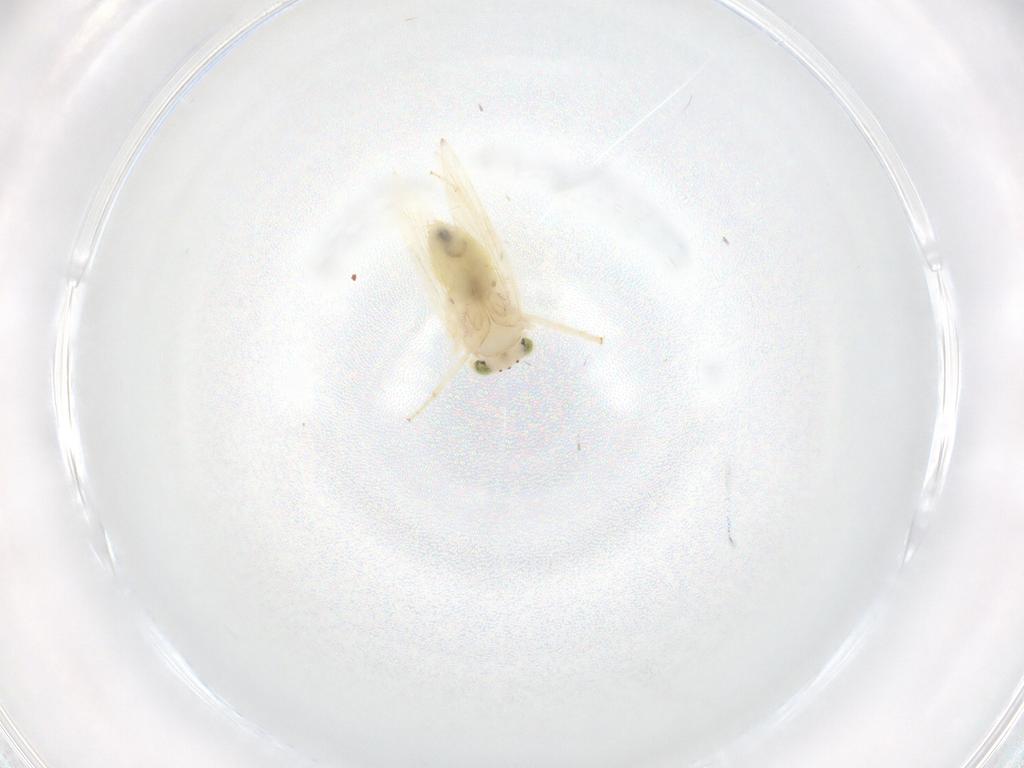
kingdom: Animalia
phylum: Arthropoda
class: Insecta
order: Psocodea
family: Lepidopsocidae
